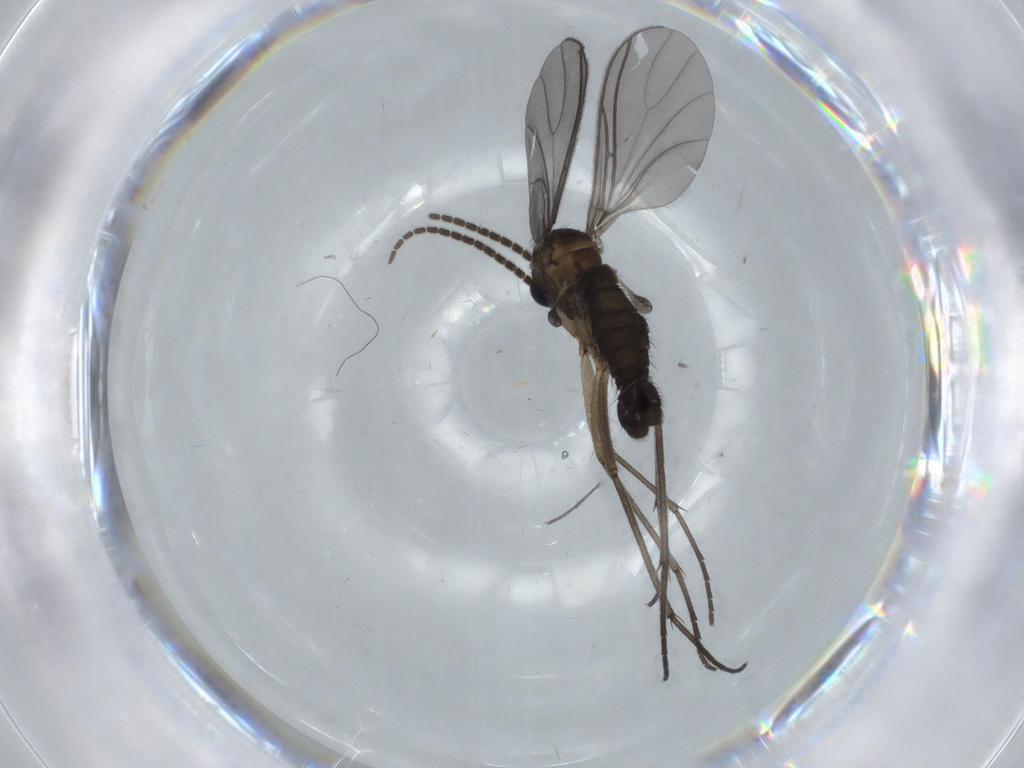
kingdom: Animalia
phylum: Arthropoda
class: Insecta
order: Diptera
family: Sciaridae
